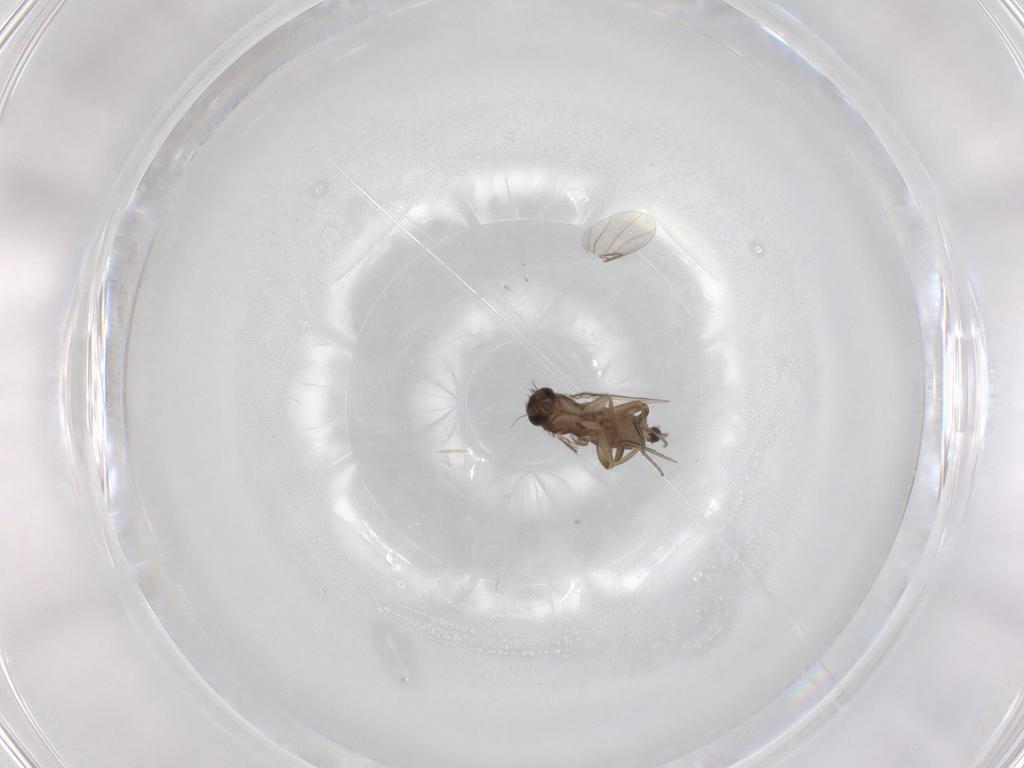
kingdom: Animalia
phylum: Arthropoda
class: Insecta
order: Diptera
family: Phoridae
